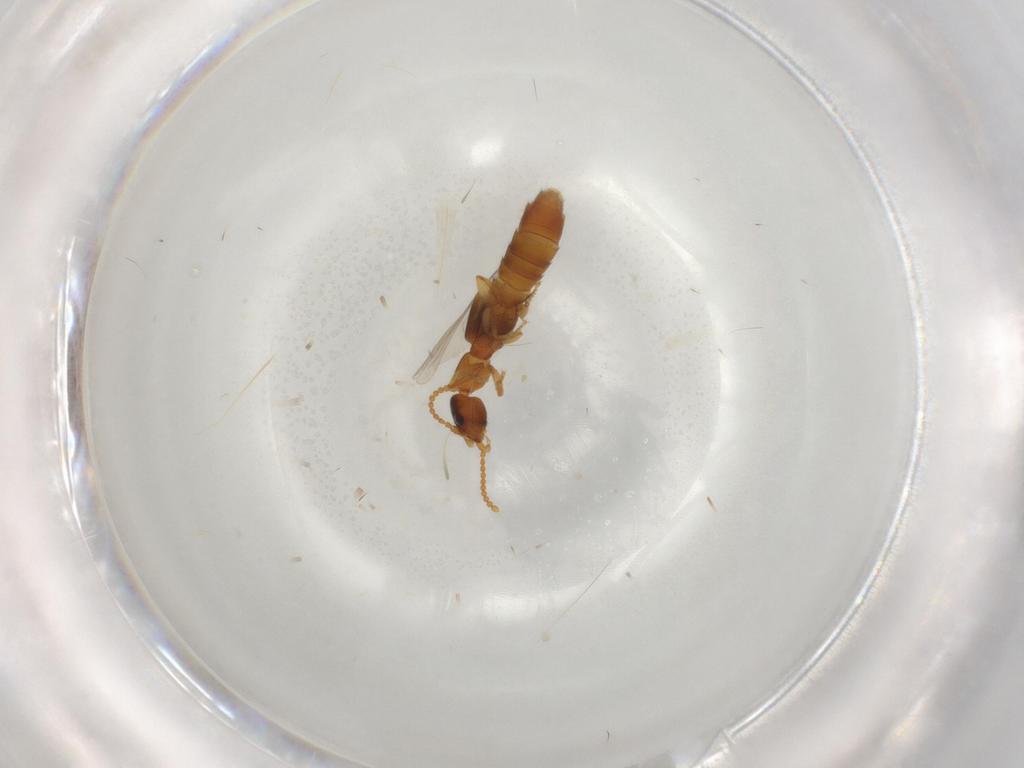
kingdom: Animalia
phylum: Arthropoda
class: Insecta
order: Coleoptera
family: Staphylinidae
